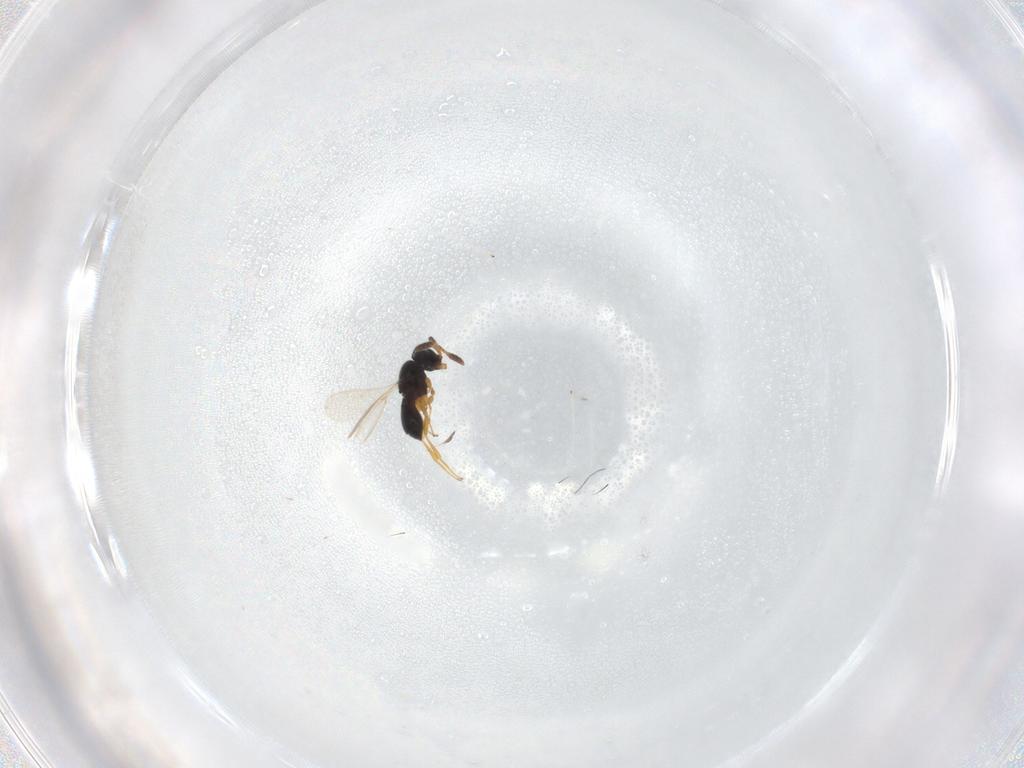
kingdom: Animalia
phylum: Arthropoda
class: Insecta
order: Hymenoptera
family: Scelionidae
